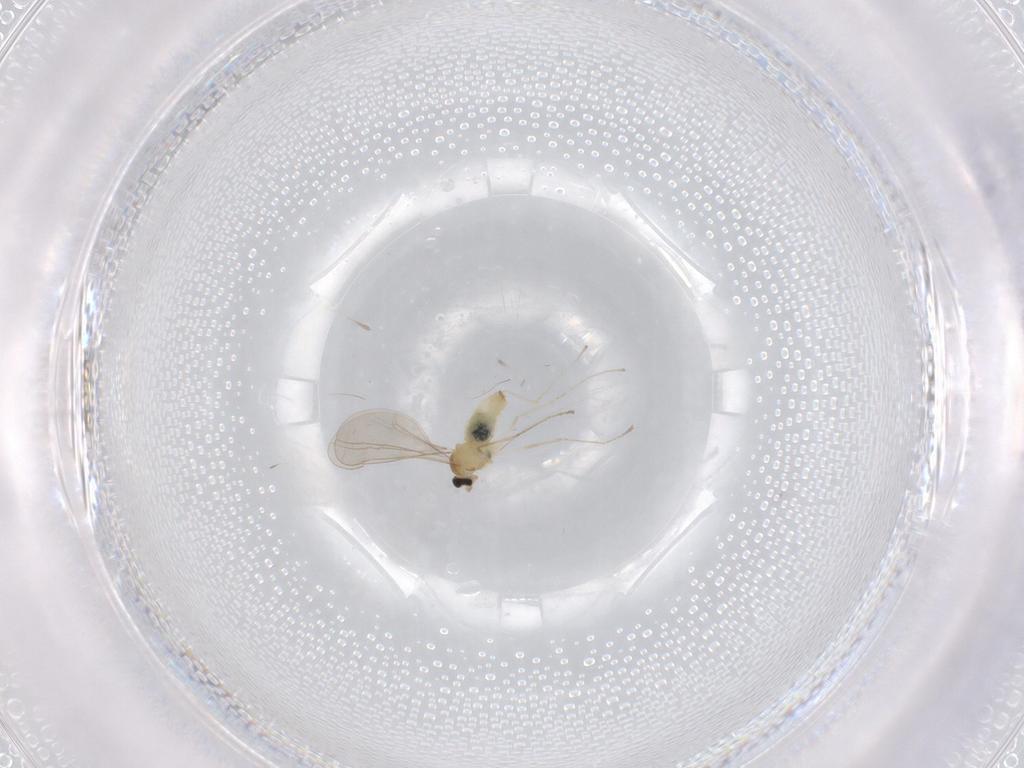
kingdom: Animalia
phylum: Arthropoda
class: Insecta
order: Diptera
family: Cecidomyiidae
